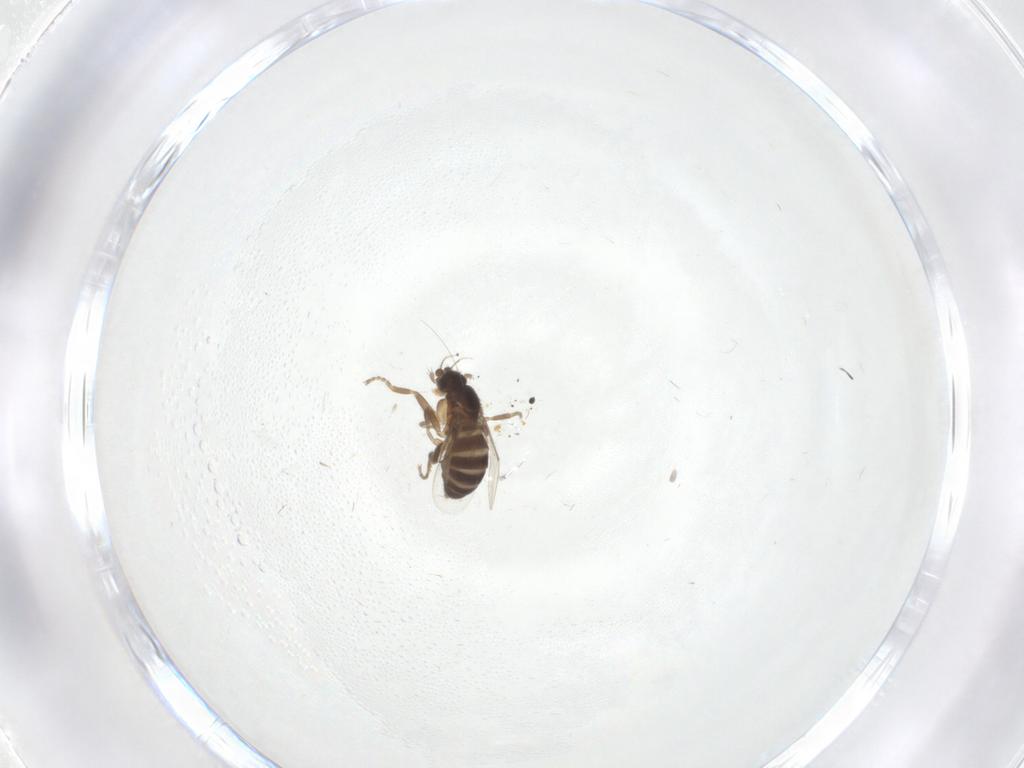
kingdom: Animalia
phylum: Arthropoda
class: Insecta
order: Diptera
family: Phoridae
